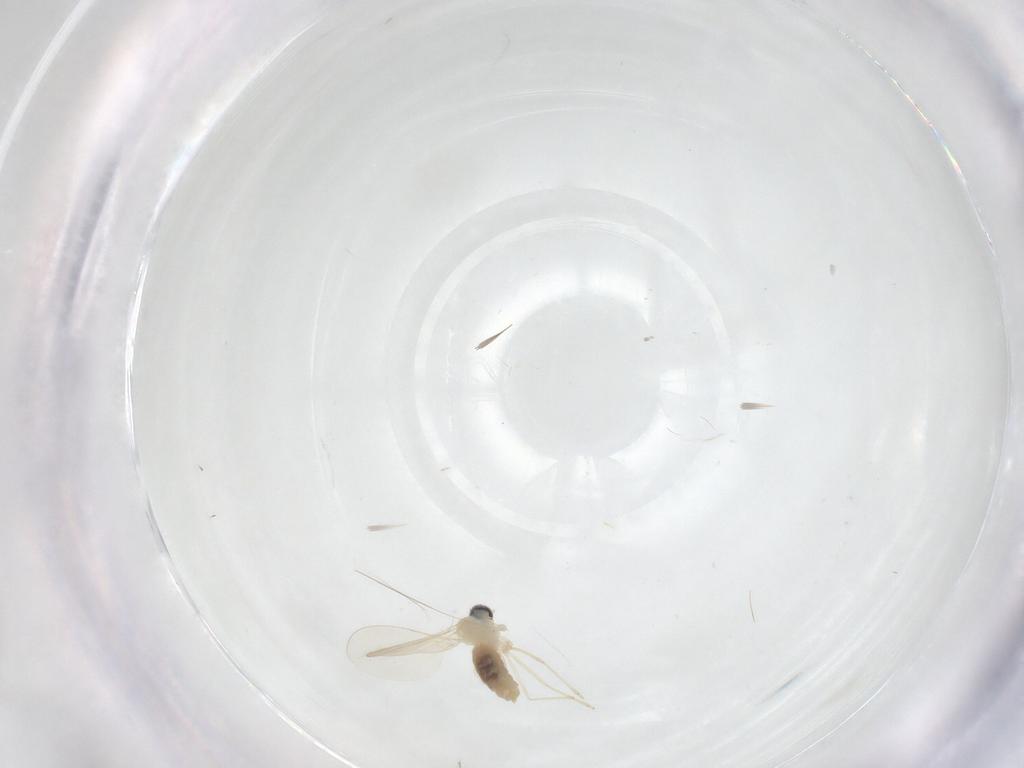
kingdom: Animalia
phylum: Arthropoda
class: Insecta
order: Diptera
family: Cecidomyiidae
